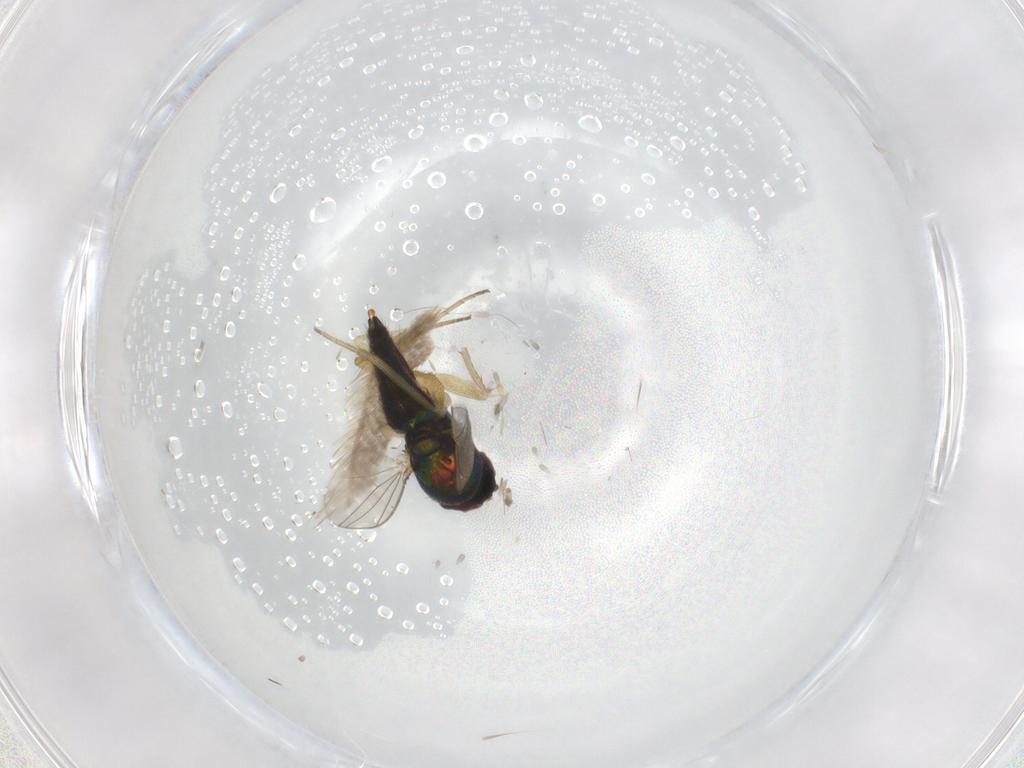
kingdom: Animalia
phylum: Arthropoda
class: Insecta
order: Diptera
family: Dolichopodidae
